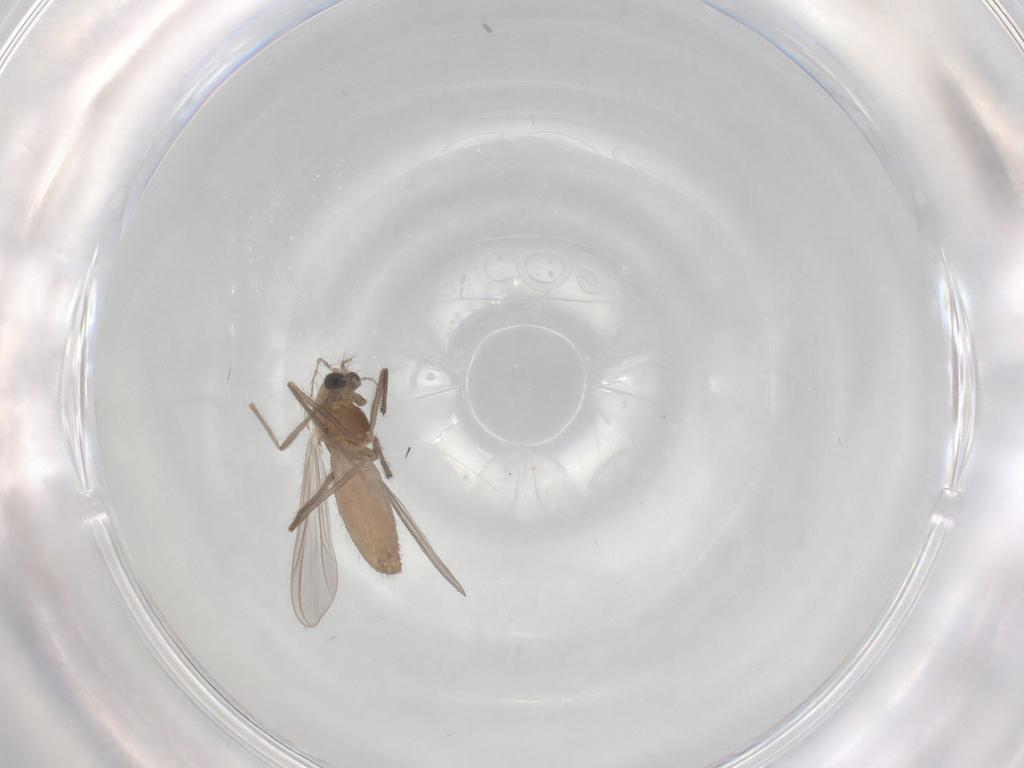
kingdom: Animalia
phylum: Arthropoda
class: Insecta
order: Diptera
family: Chironomidae
